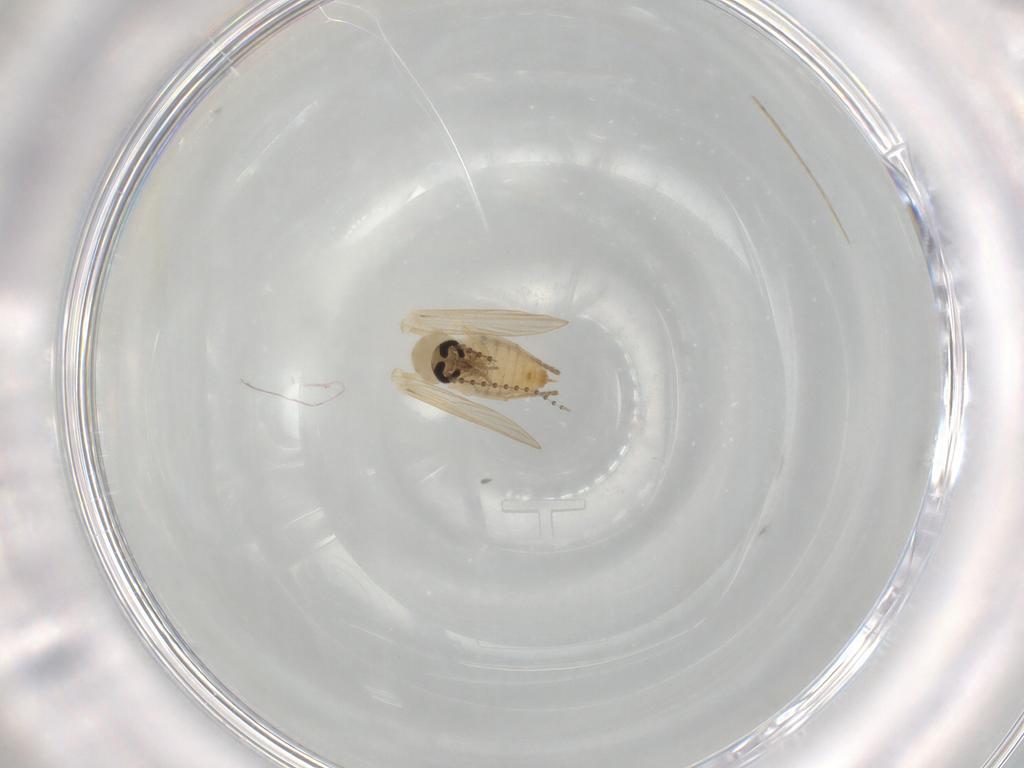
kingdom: Animalia
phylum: Arthropoda
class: Insecta
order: Diptera
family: Psychodidae
